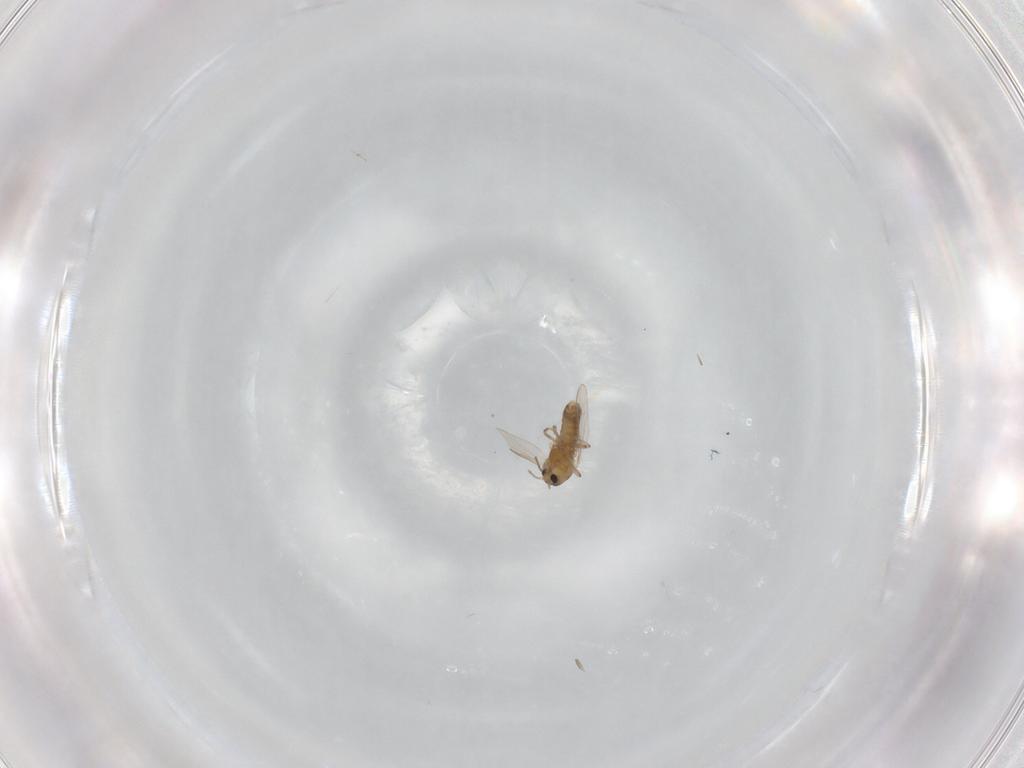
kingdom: Animalia
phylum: Arthropoda
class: Insecta
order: Diptera
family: Chironomidae
